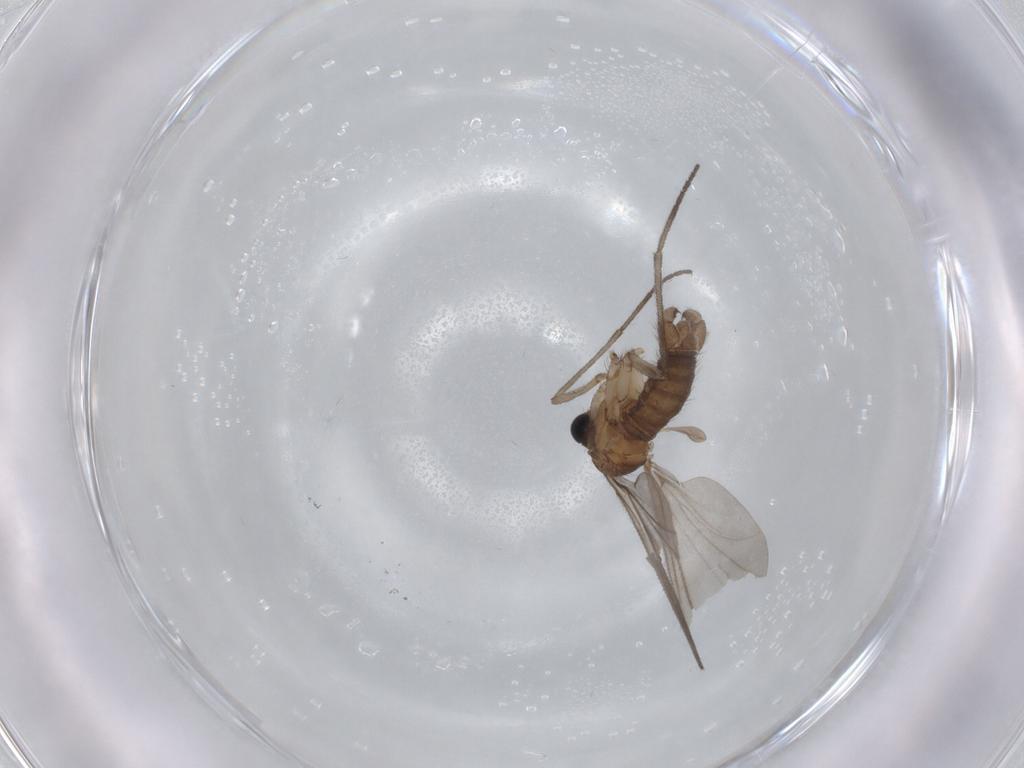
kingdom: Animalia
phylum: Arthropoda
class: Insecta
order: Diptera
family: Sciaridae
